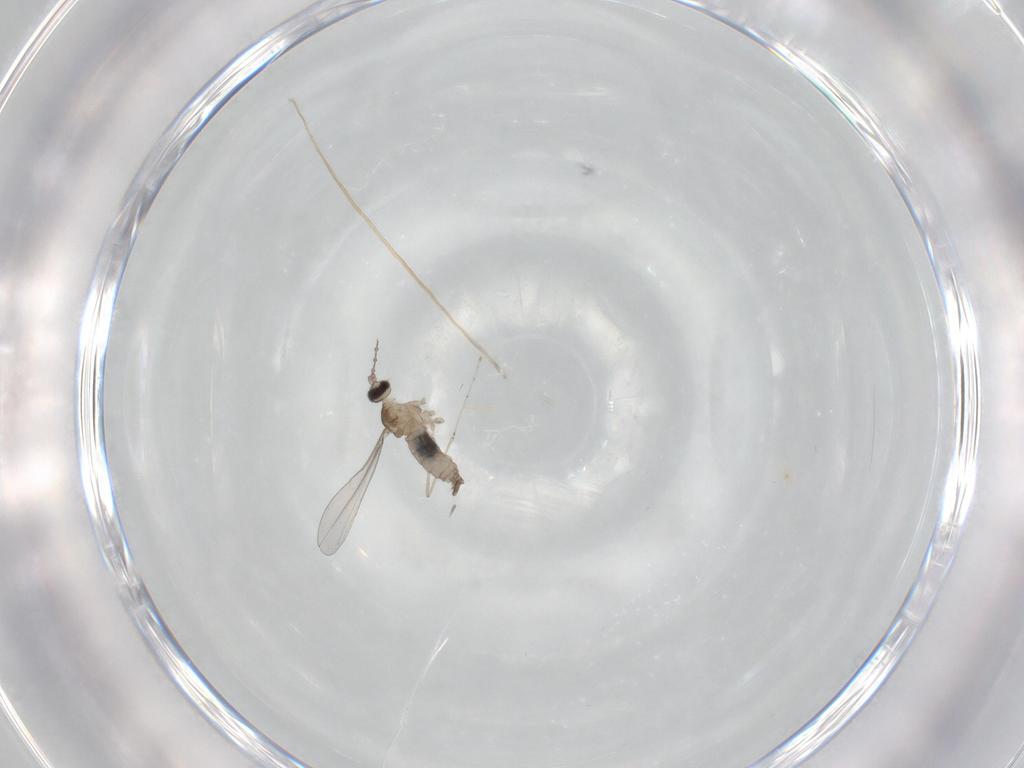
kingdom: Animalia
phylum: Arthropoda
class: Insecta
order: Diptera
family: Cecidomyiidae
